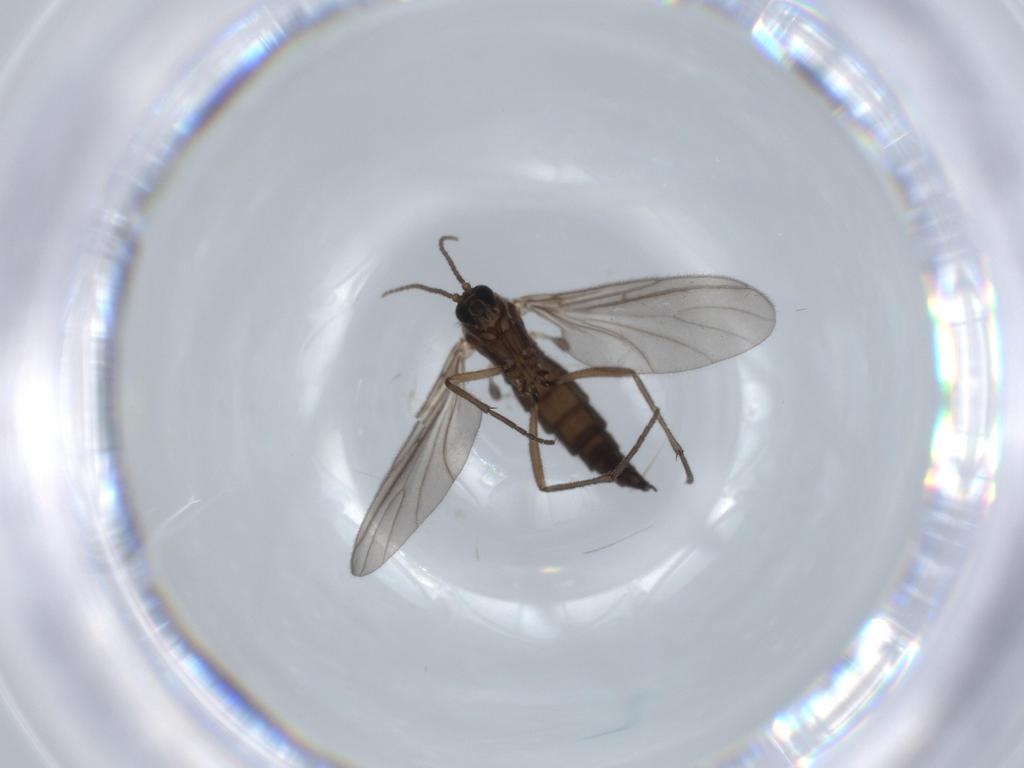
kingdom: Animalia
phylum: Arthropoda
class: Insecta
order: Diptera
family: Sciaridae
